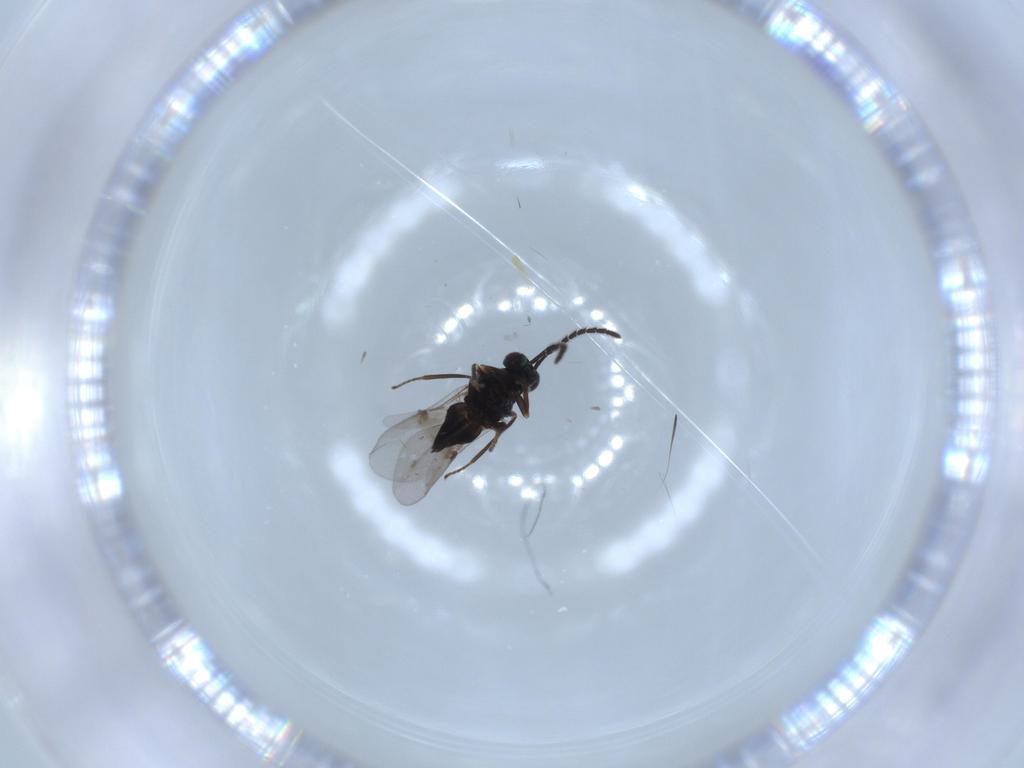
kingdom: Animalia
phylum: Arthropoda
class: Insecta
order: Hymenoptera
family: Encyrtidae
